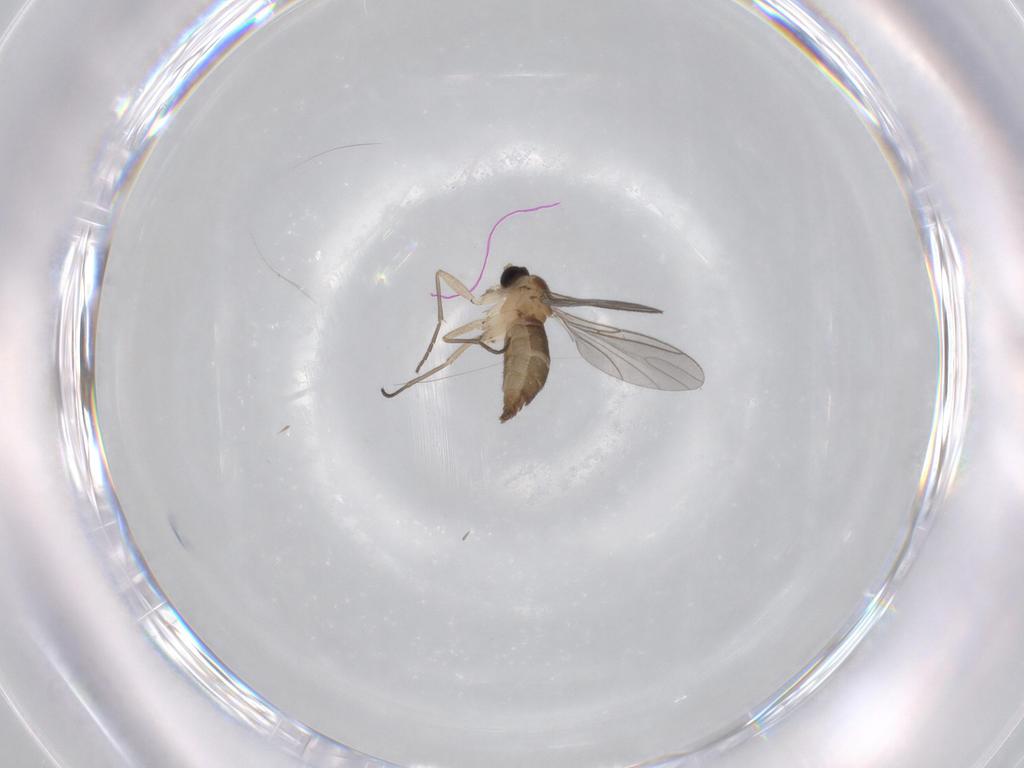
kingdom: Animalia
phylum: Arthropoda
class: Insecta
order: Diptera
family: Sciaridae
